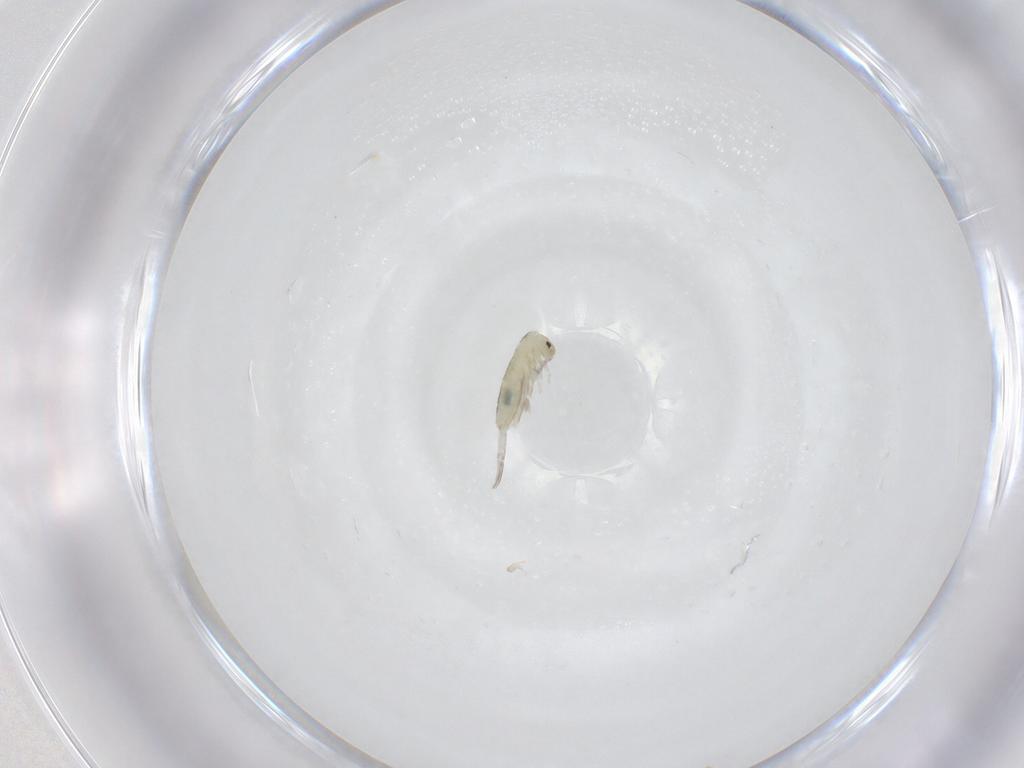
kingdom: Animalia
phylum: Arthropoda
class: Collembola
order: Entomobryomorpha
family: Entomobryidae
